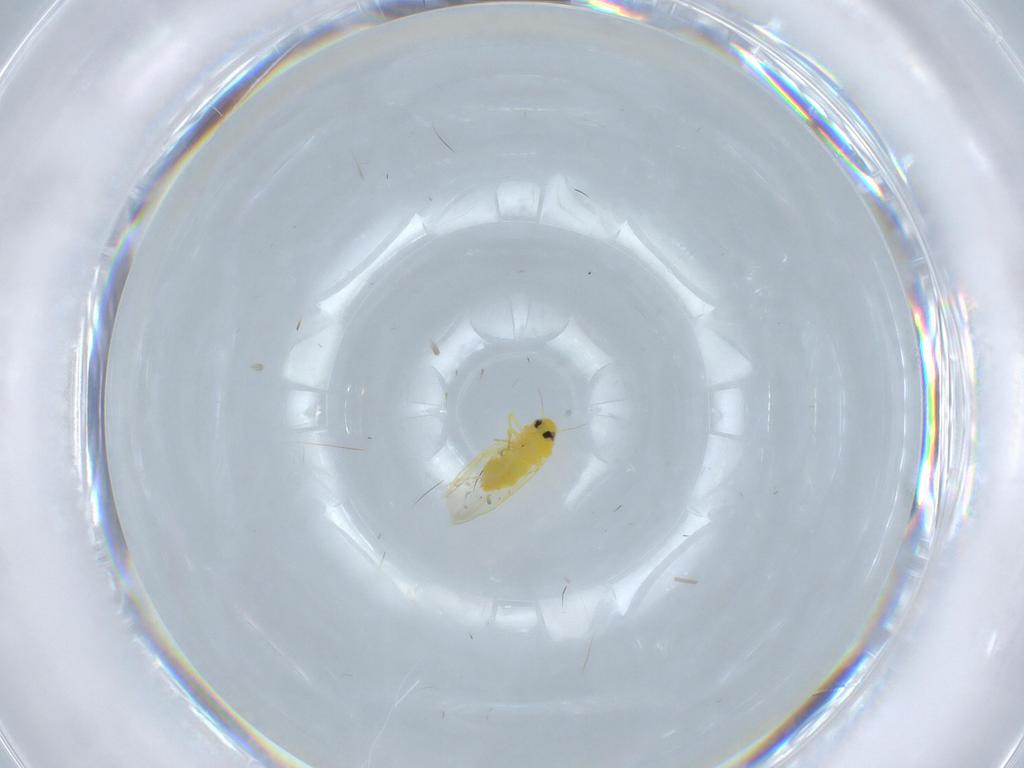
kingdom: Animalia
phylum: Arthropoda
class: Insecta
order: Hemiptera
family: Aleyrodidae
